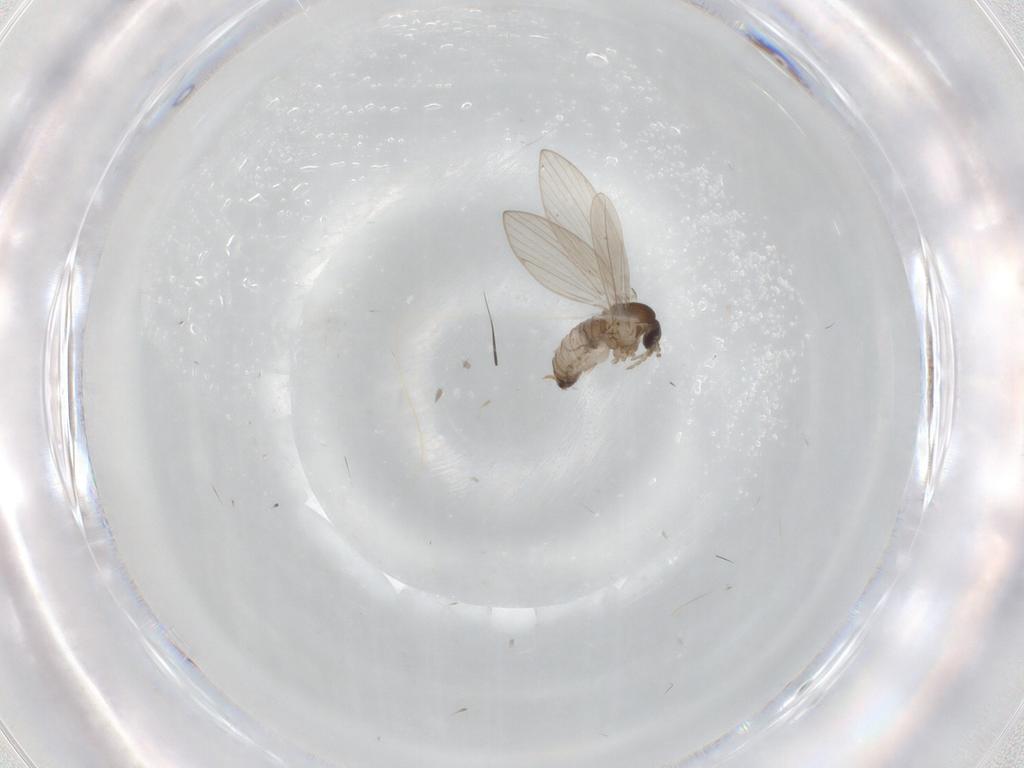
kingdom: Animalia
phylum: Arthropoda
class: Insecta
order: Diptera
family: Psychodidae
